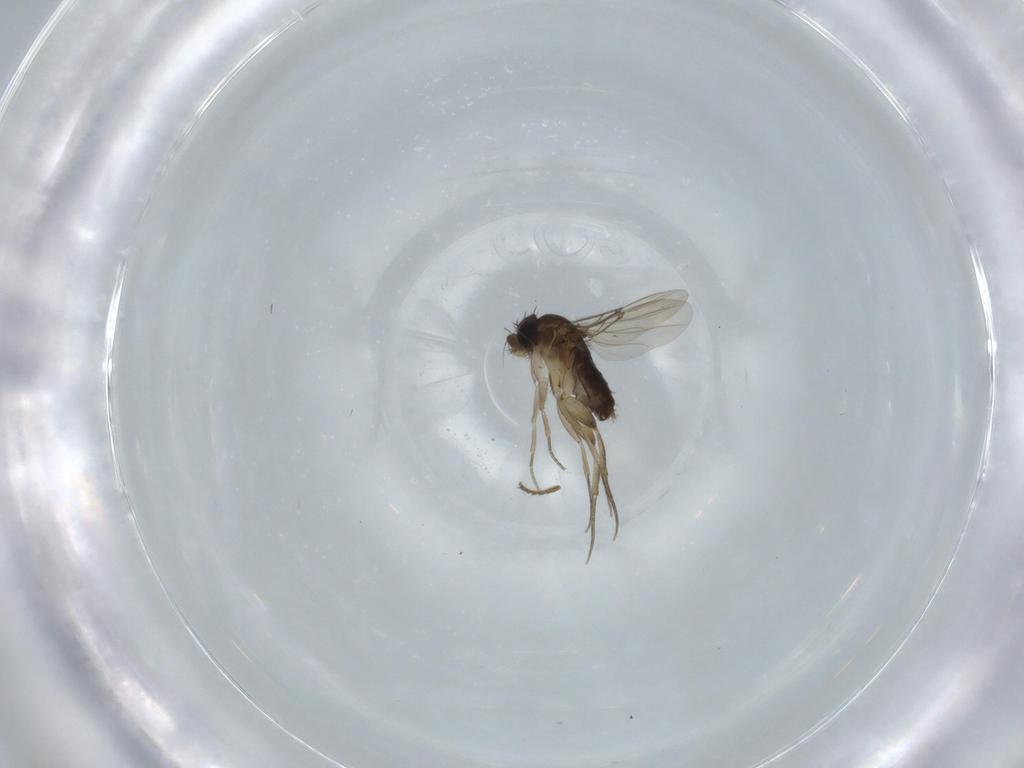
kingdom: Animalia
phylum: Arthropoda
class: Insecta
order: Diptera
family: Phoridae
